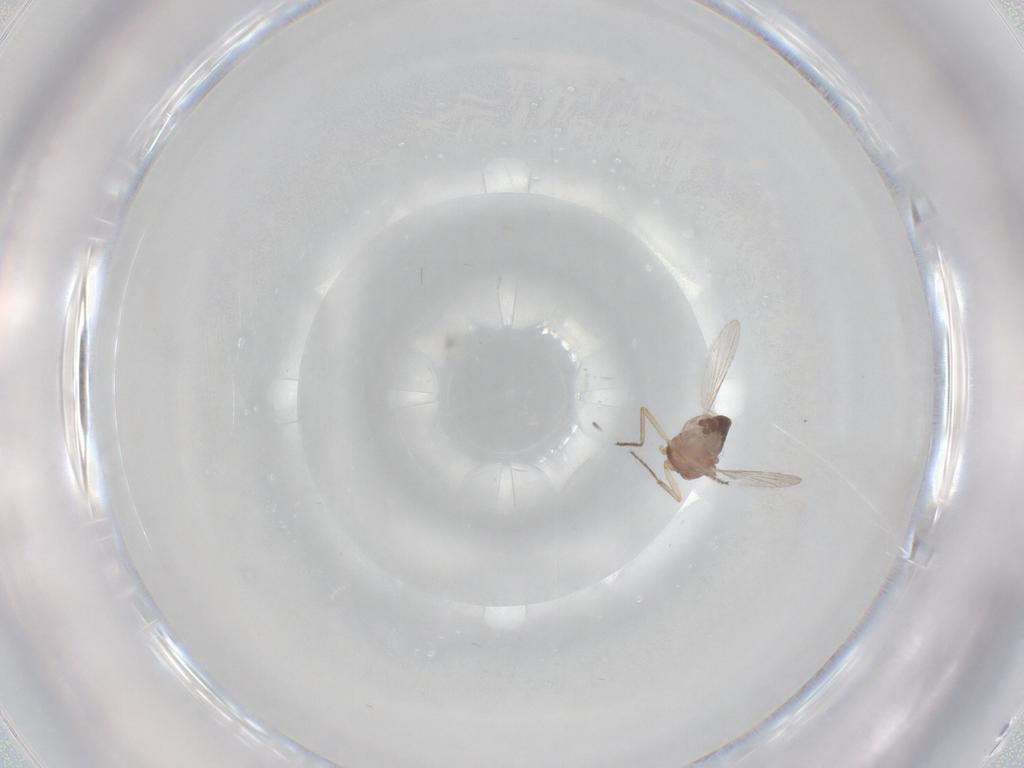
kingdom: Animalia
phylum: Arthropoda
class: Insecta
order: Diptera
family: Ceratopogonidae
